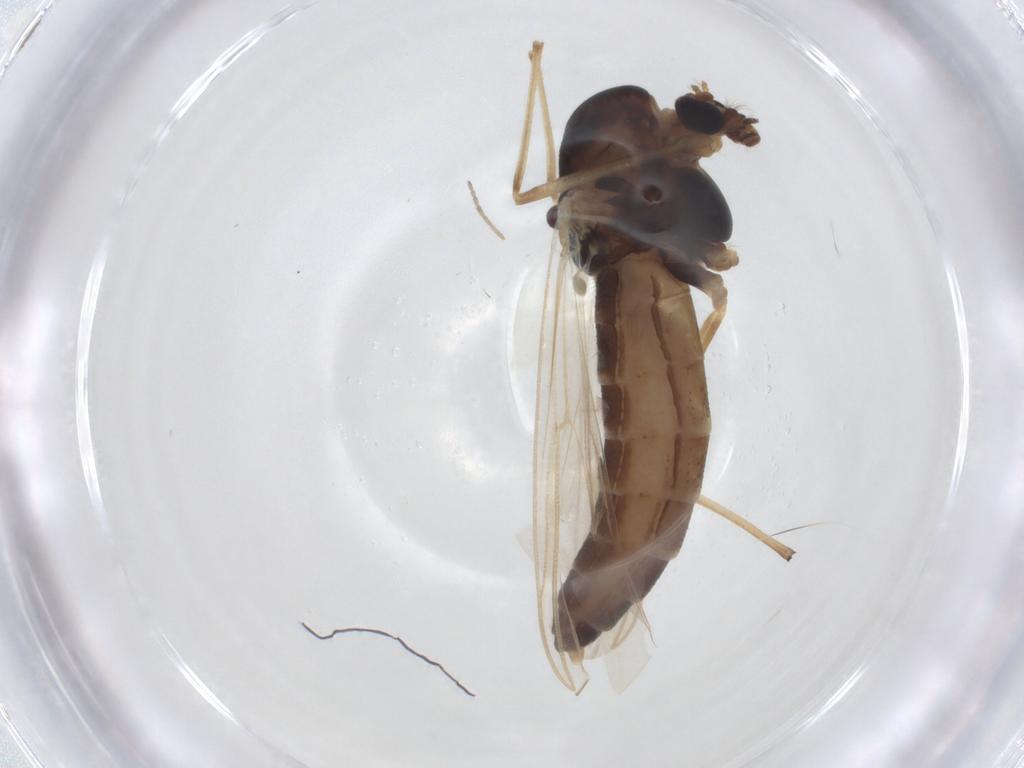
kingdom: Animalia
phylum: Arthropoda
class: Insecta
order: Diptera
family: Chironomidae
